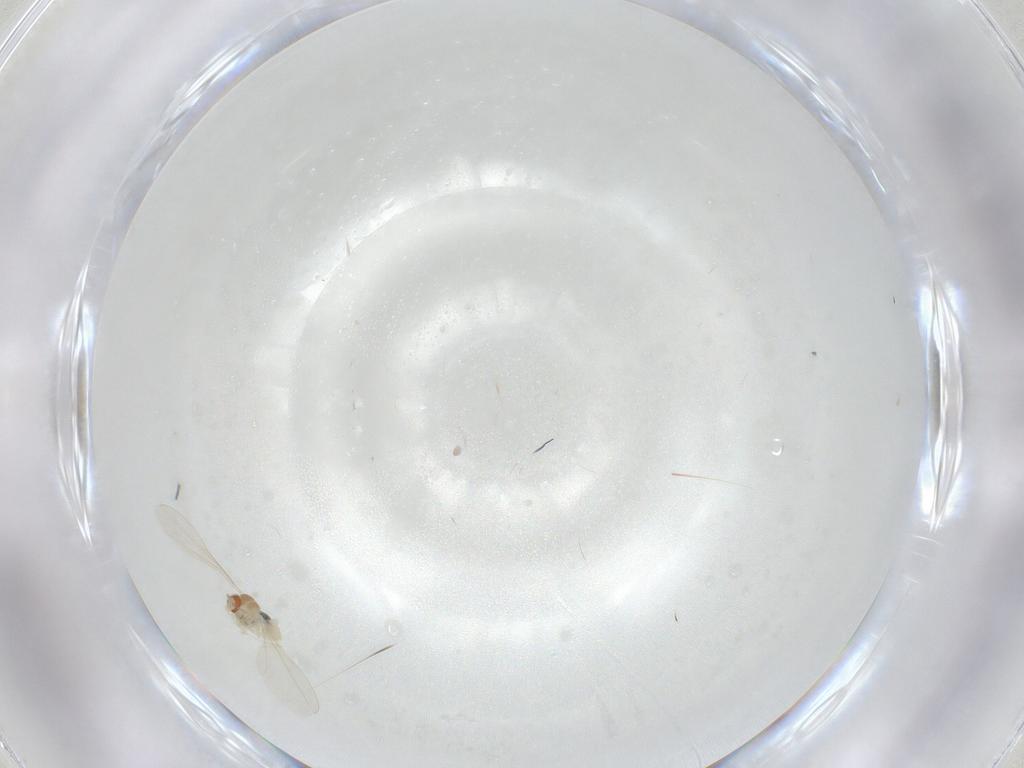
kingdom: Animalia
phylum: Arthropoda
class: Insecta
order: Diptera
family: Cecidomyiidae
